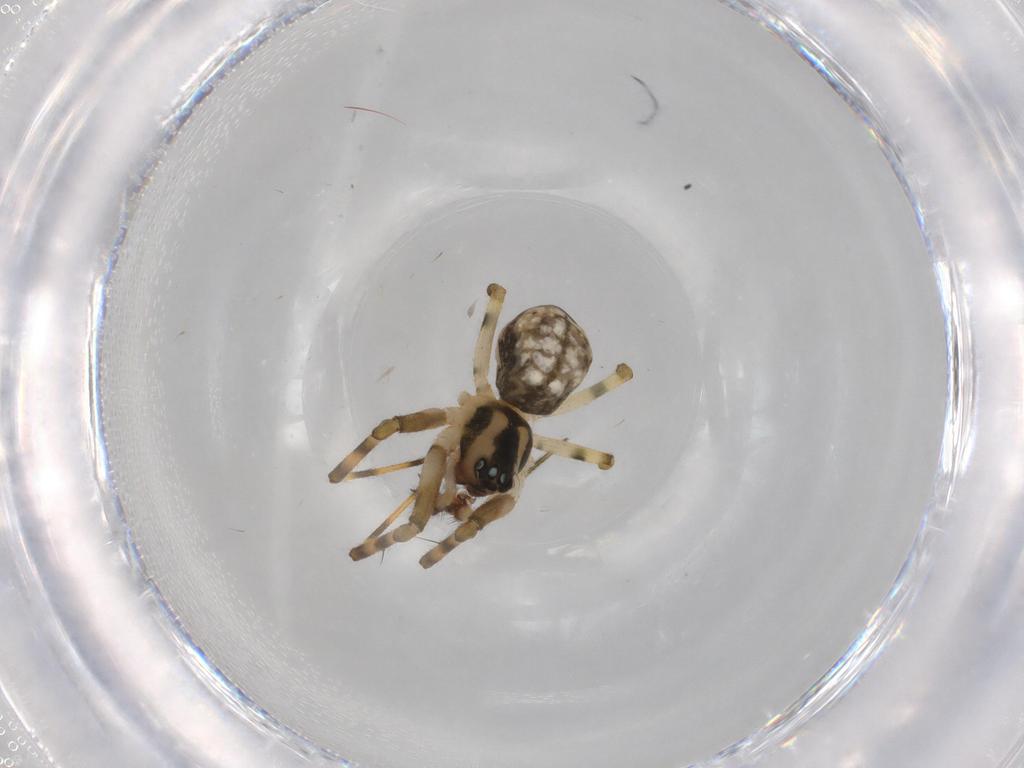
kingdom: Animalia
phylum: Arthropoda
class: Arachnida
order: Araneae
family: Mysmenidae
